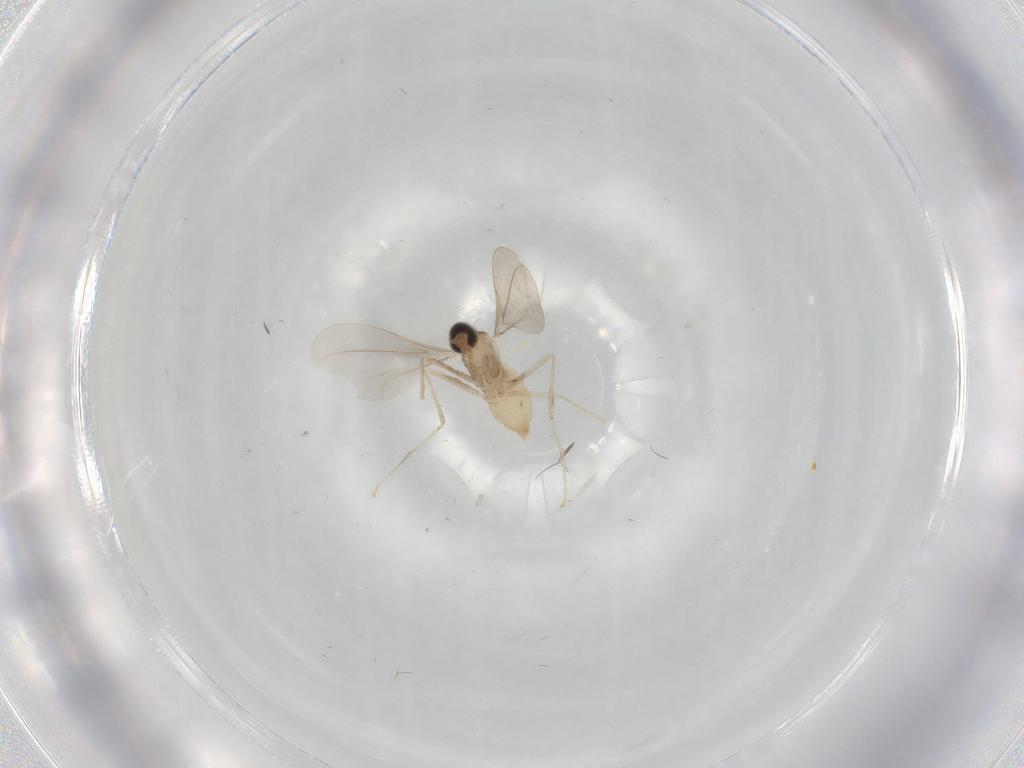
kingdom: Animalia
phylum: Arthropoda
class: Insecta
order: Diptera
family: Cecidomyiidae
